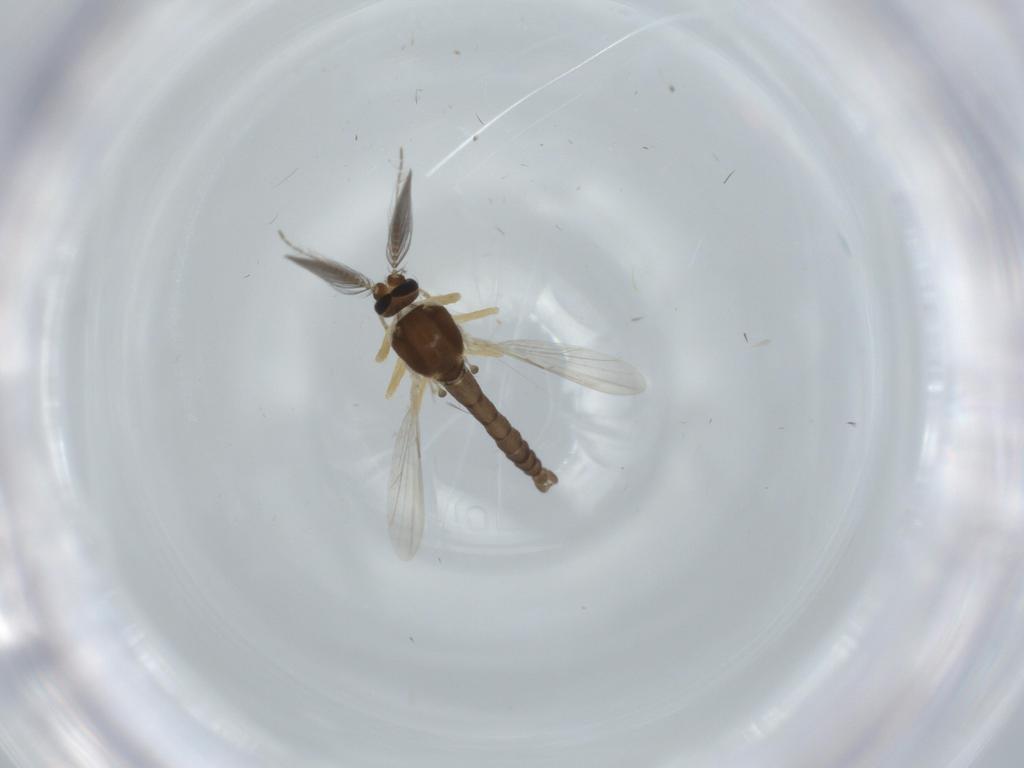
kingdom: Animalia
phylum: Arthropoda
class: Insecta
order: Diptera
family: Ceratopogonidae
